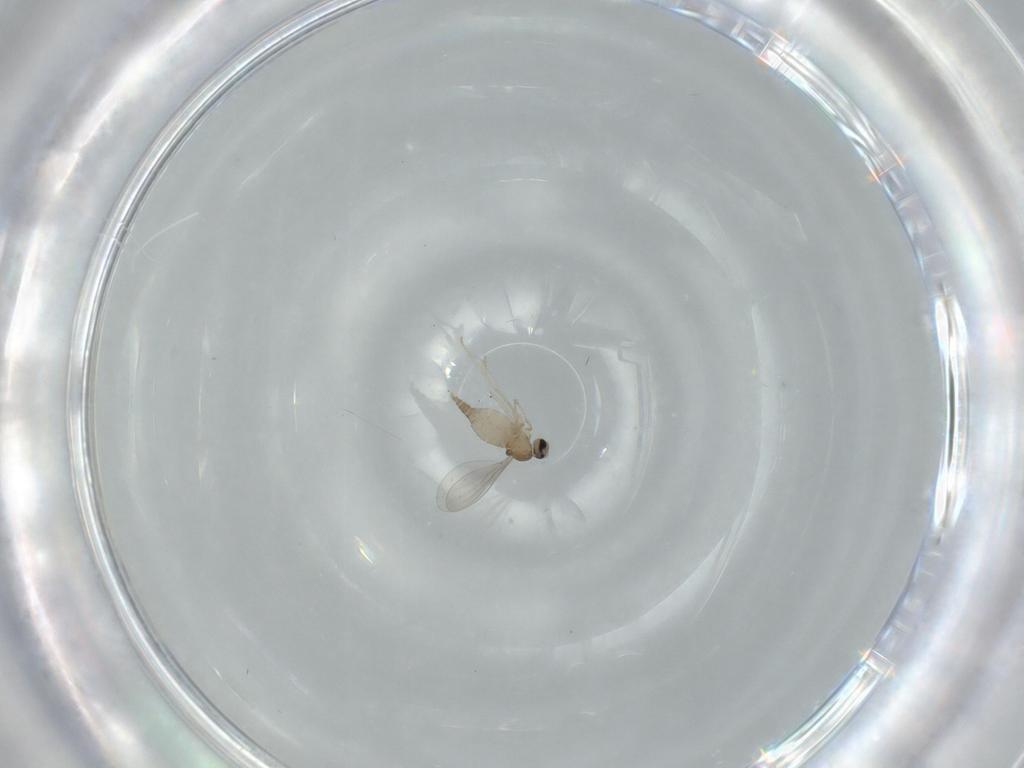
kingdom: Animalia
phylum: Arthropoda
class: Insecta
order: Diptera
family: Cecidomyiidae
